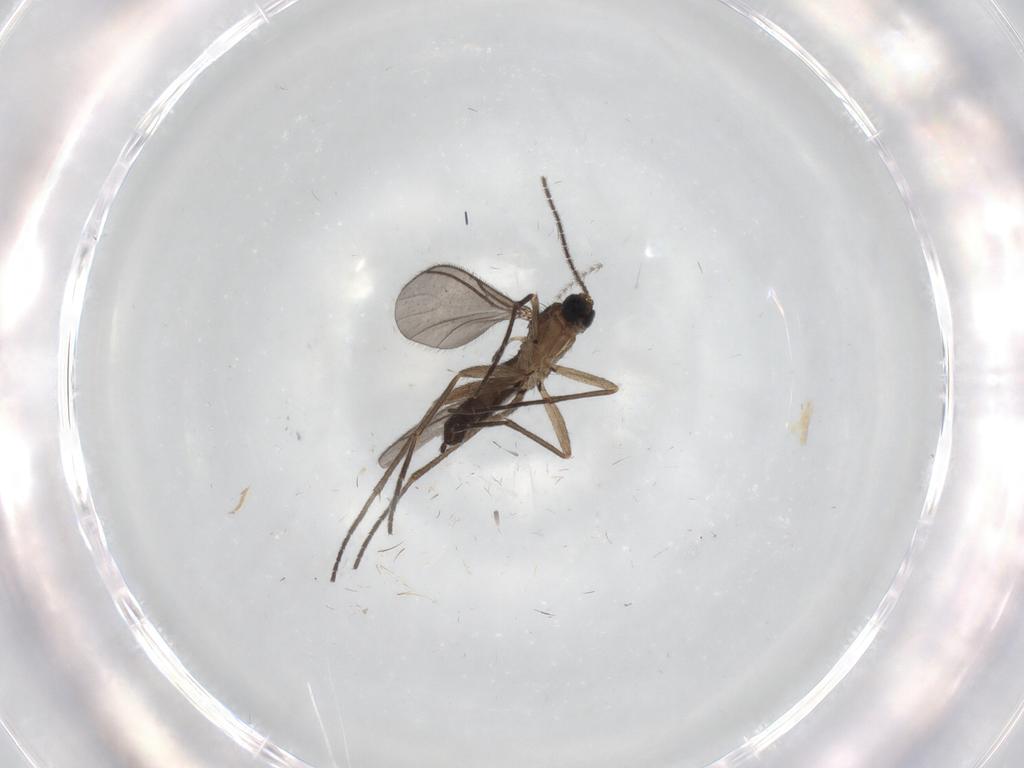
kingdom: Animalia
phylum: Arthropoda
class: Insecta
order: Diptera
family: Sciaridae
